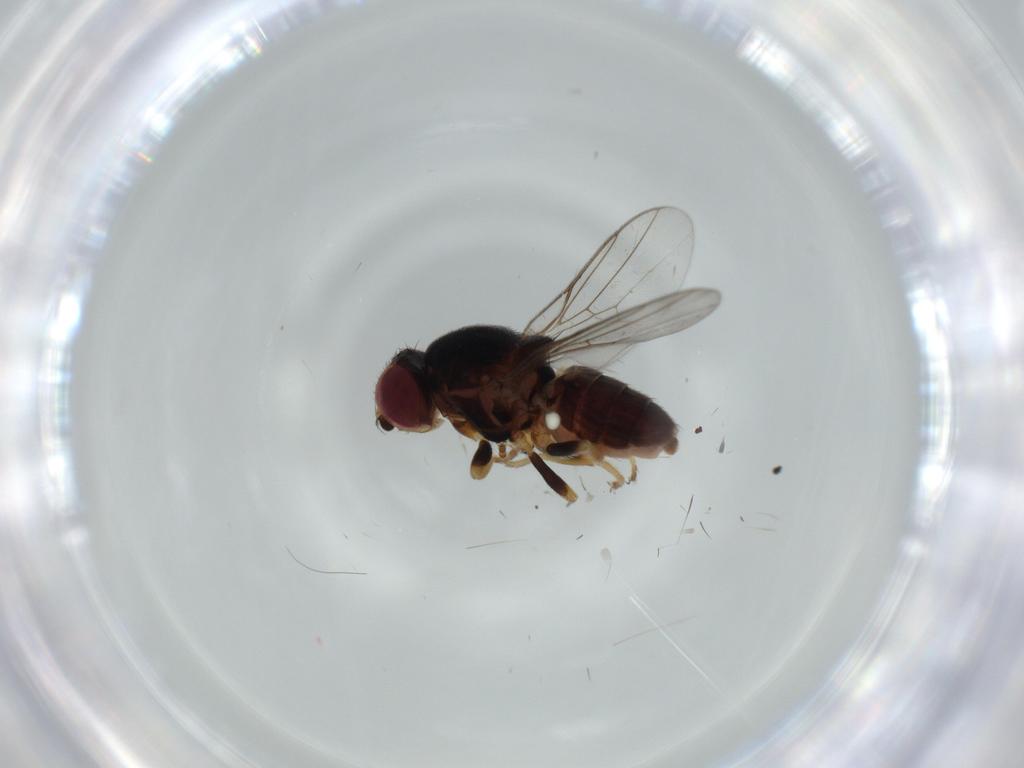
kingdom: Animalia
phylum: Arthropoda
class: Insecta
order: Diptera
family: Chloropidae
